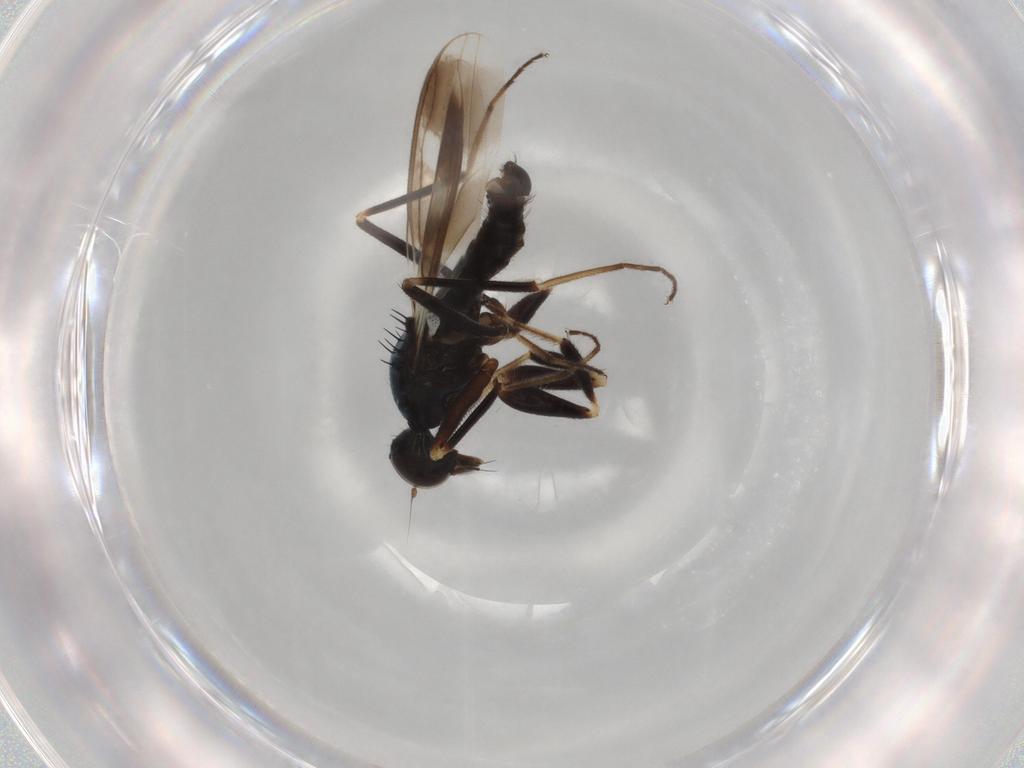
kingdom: Animalia
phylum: Arthropoda
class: Insecta
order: Diptera
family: Hybotidae
